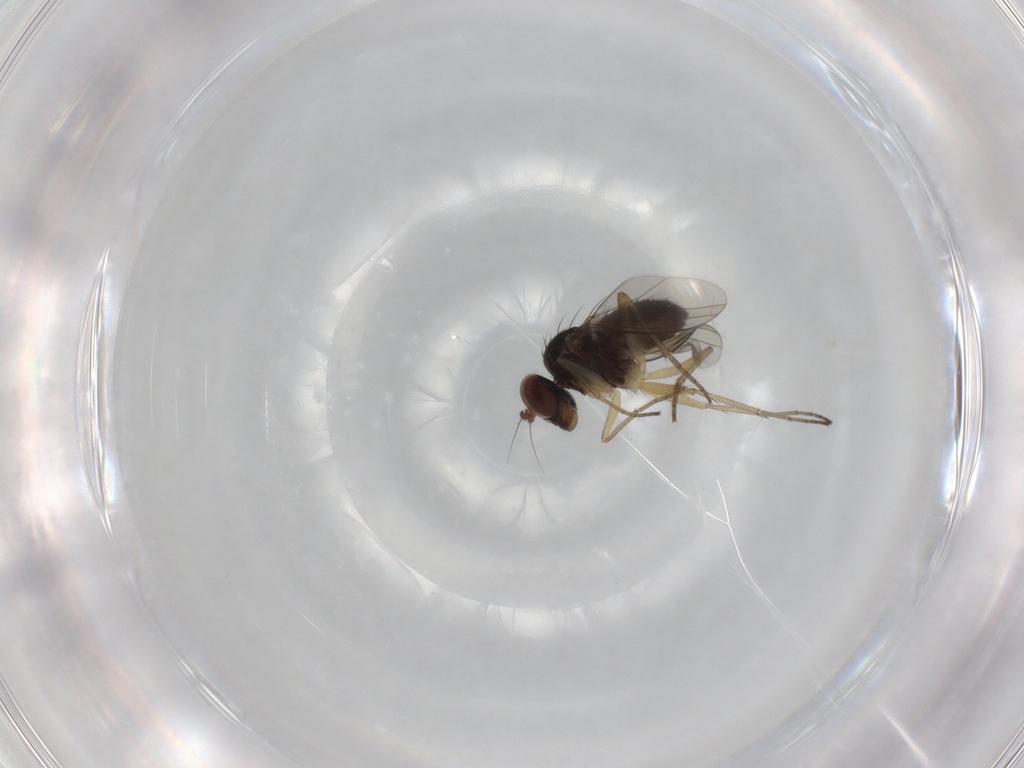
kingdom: Animalia
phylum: Arthropoda
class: Insecta
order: Diptera
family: Dolichopodidae
